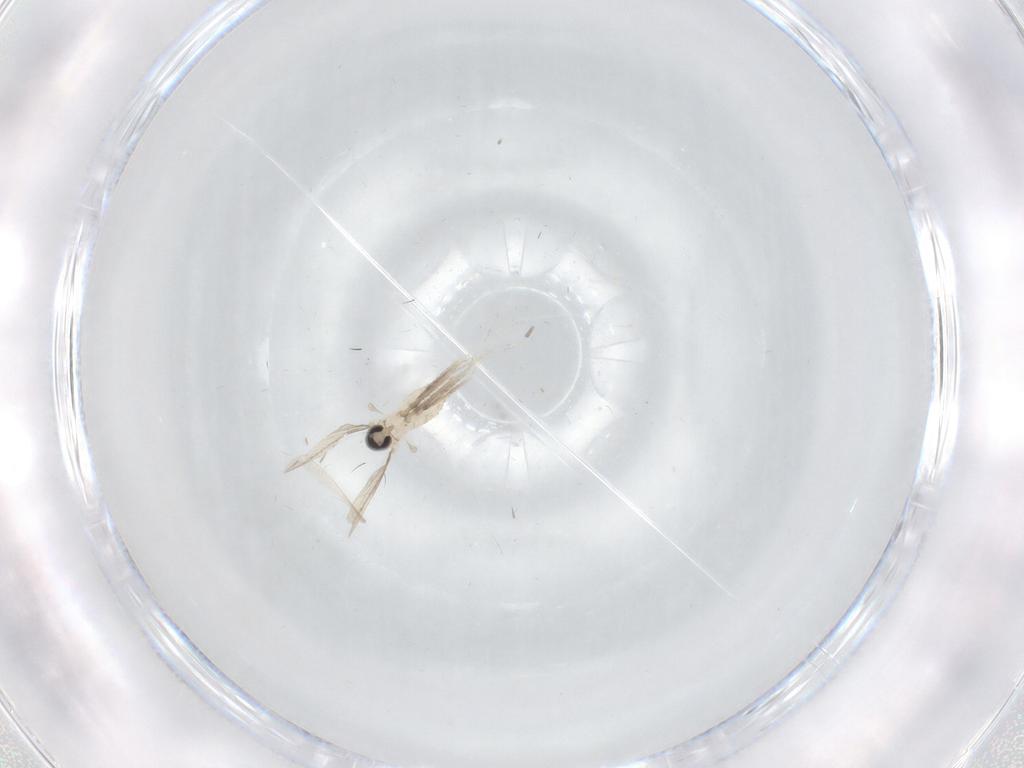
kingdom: Animalia
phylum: Arthropoda
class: Insecta
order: Diptera
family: Cecidomyiidae
